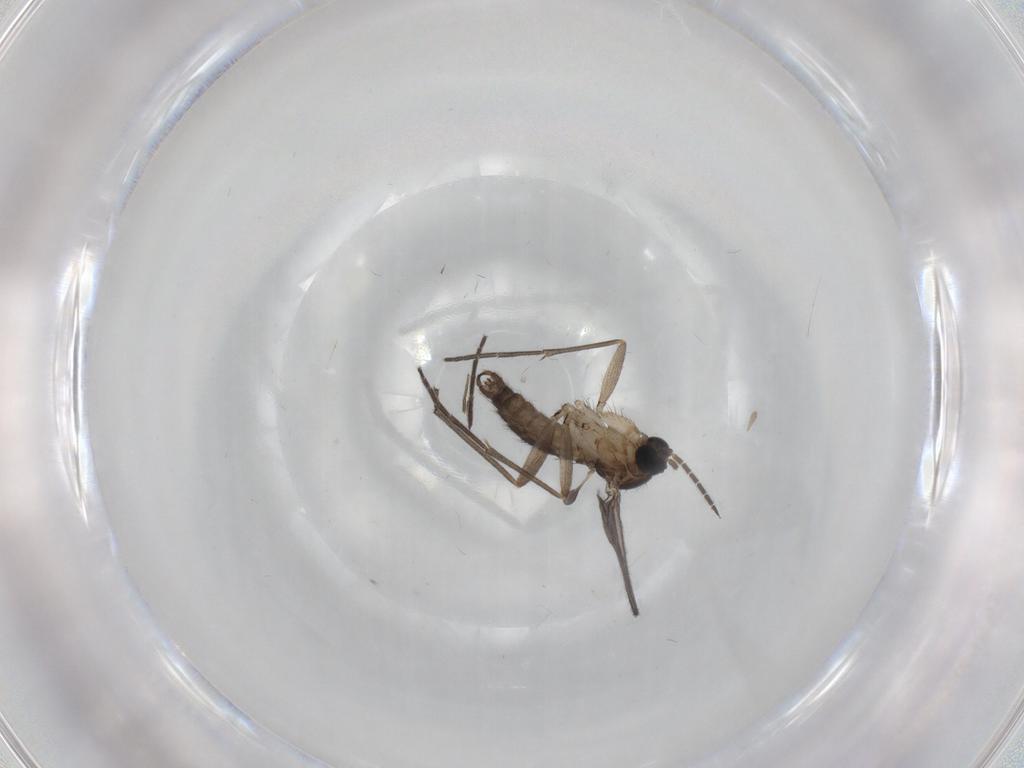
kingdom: Animalia
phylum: Arthropoda
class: Insecta
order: Diptera
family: Sciaridae
